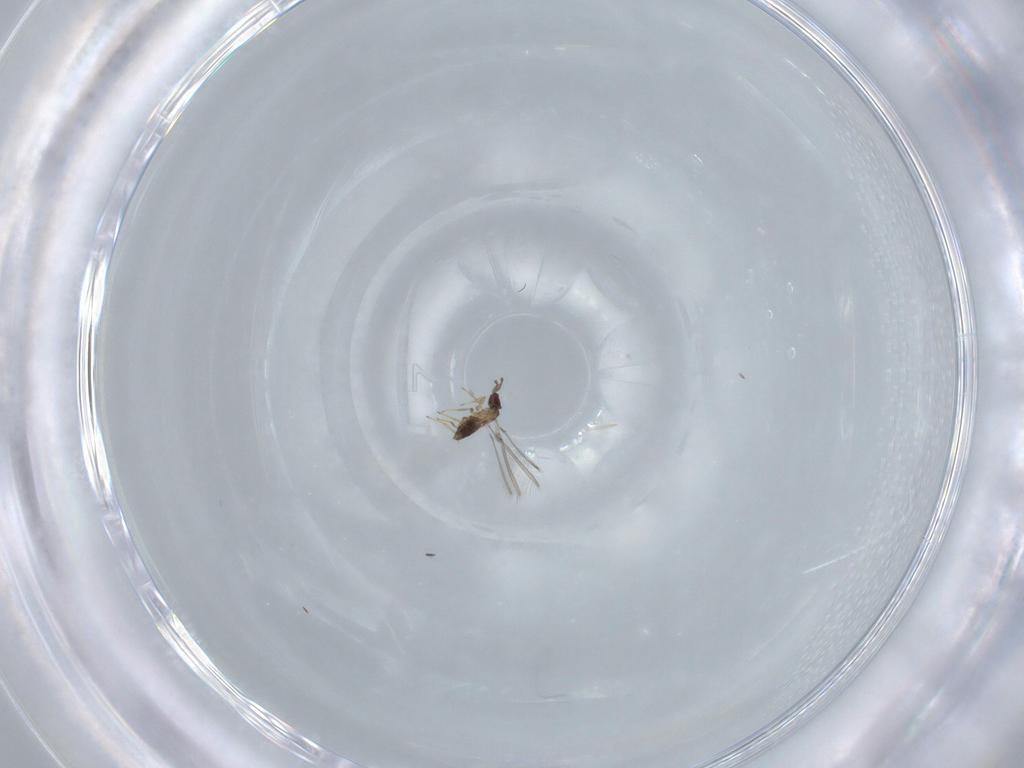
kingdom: Animalia
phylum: Arthropoda
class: Insecta
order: Hymenoptera
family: Mymaridae
